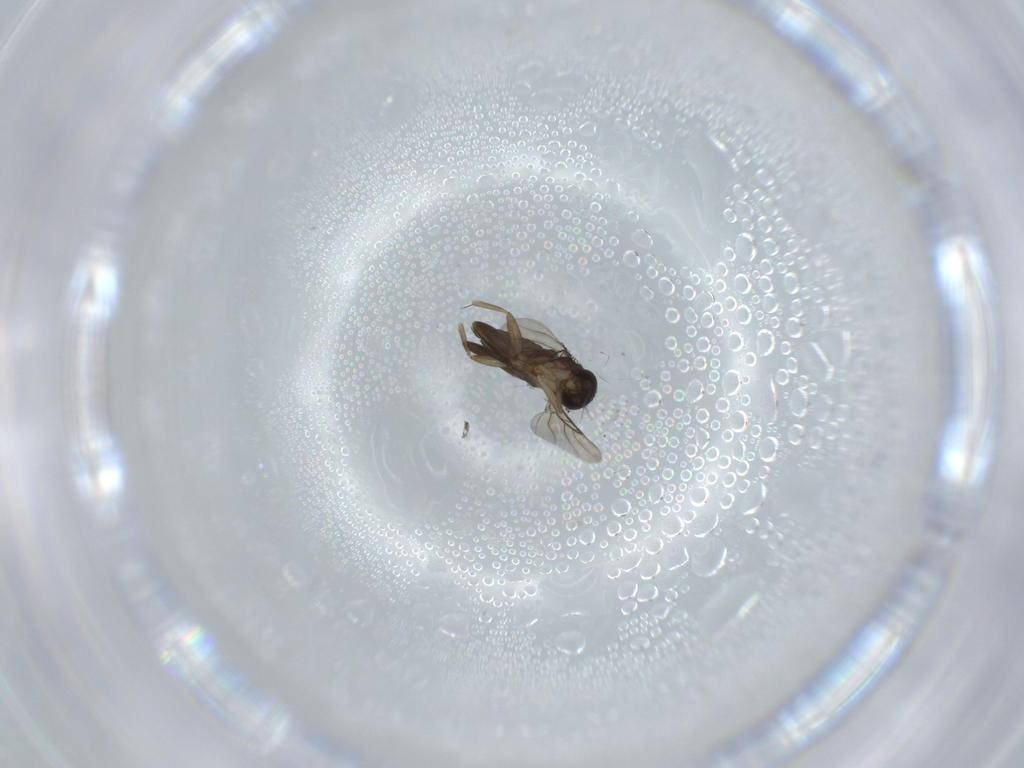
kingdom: Animalia
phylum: Arthropoda
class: Insecta
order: Diptera
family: Phoridae
